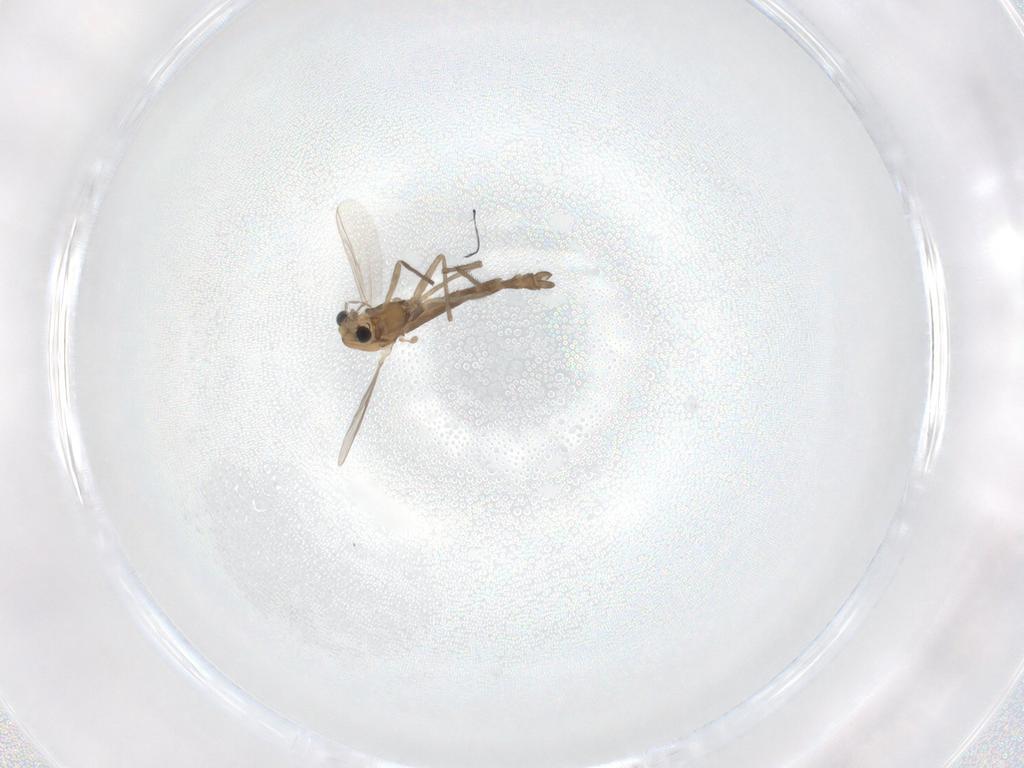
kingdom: Animalia
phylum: Arthropoda
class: Insecta
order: Diptera
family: Chironomidae
